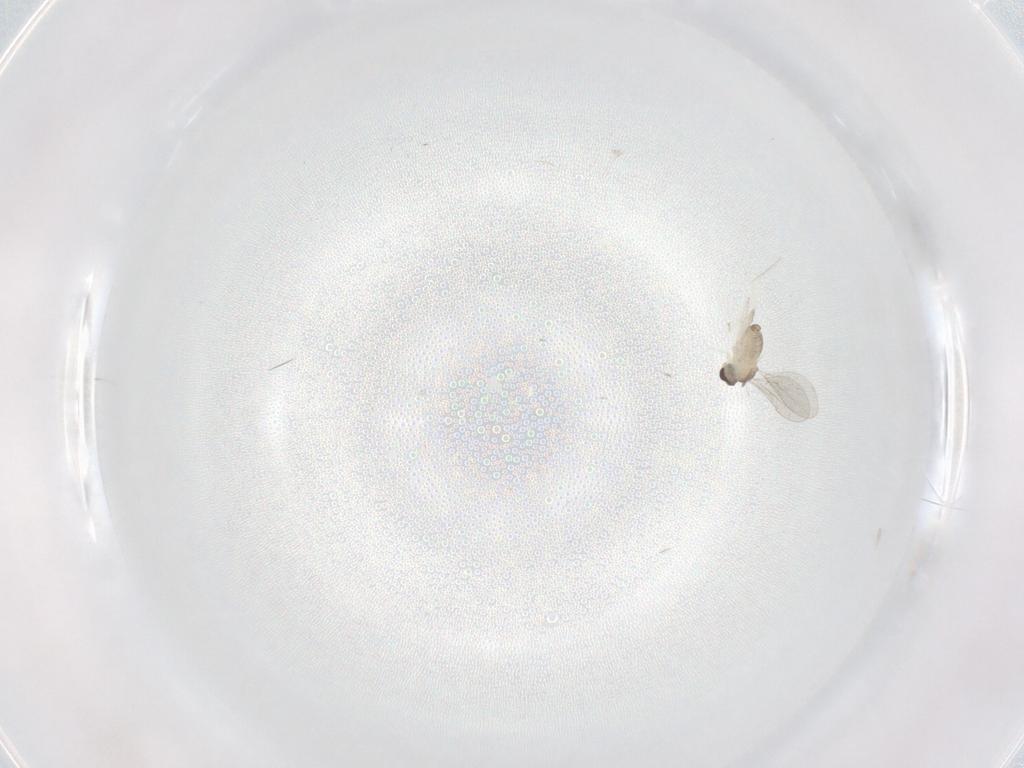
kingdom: Animalia
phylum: Arthropoda
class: Insecta
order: Diptera
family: Cecidomyiidae
